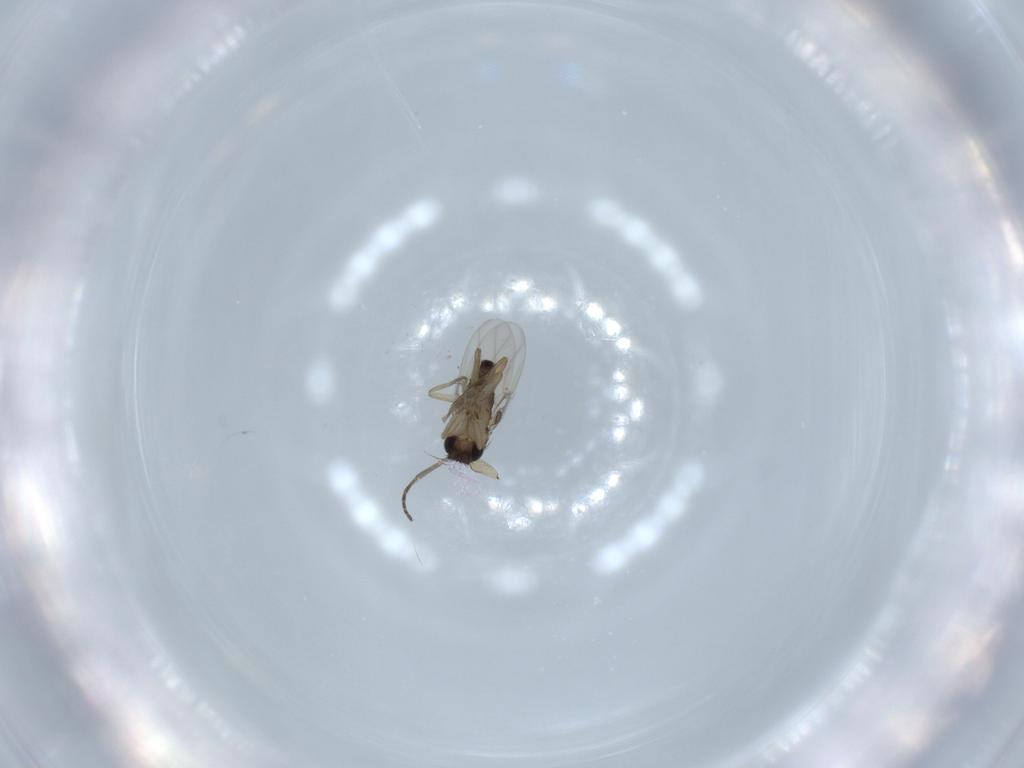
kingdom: Animalia
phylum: Arthropoda
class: Insecta
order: Diptera
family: Phoridae
